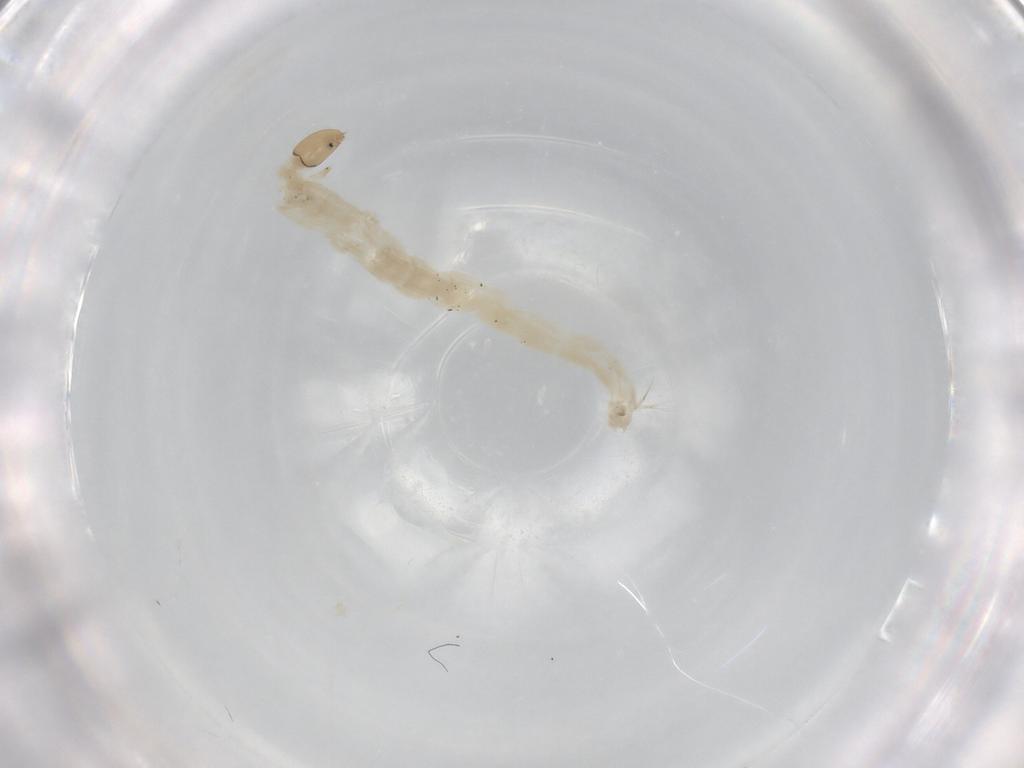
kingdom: Animalia
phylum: Arthropoda
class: Insecta
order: Diptera
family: Chironomidae
